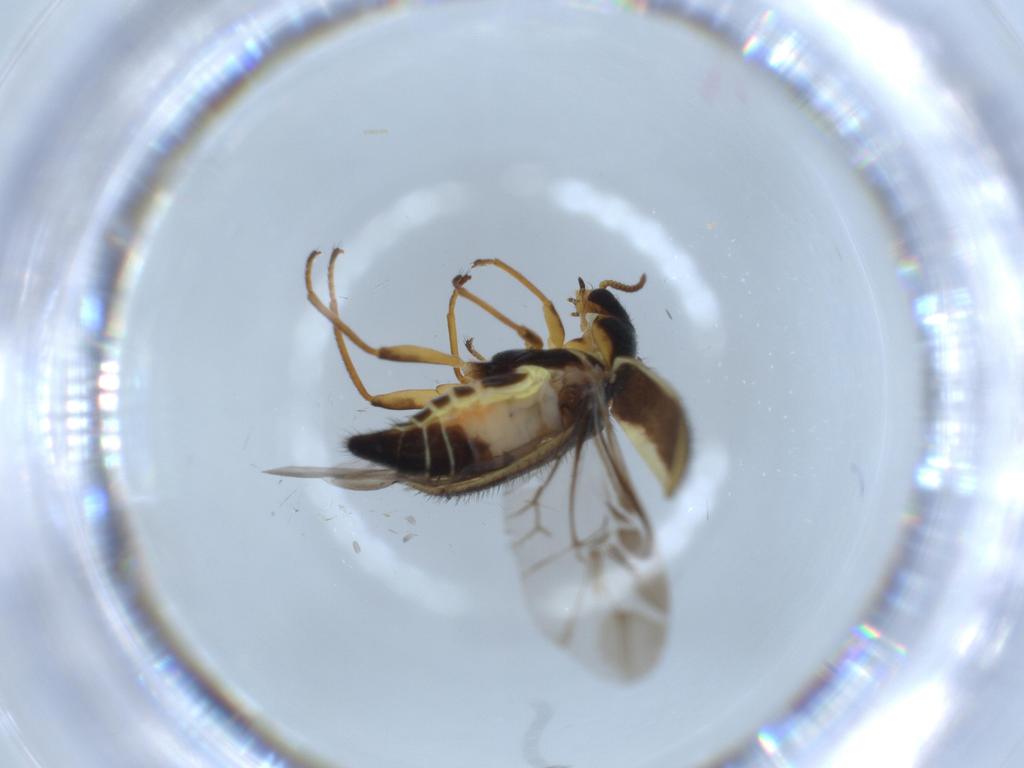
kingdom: Animalia
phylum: Arthropoda
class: Insecta
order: Coleoptera
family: Melyridae
